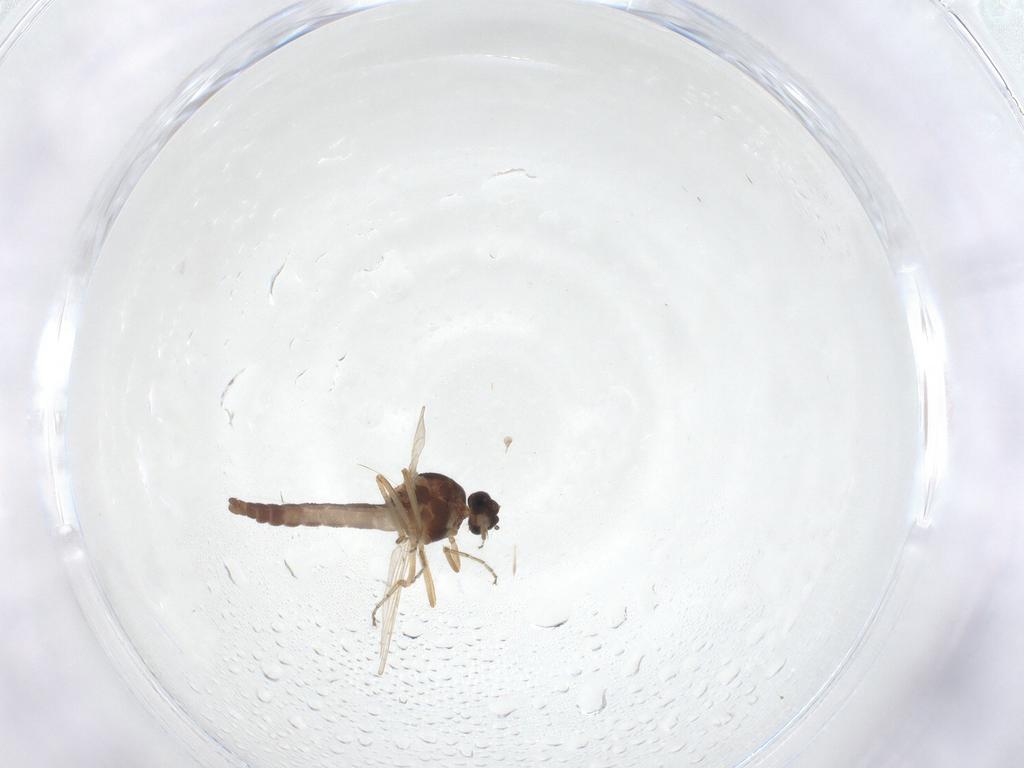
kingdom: Animalia
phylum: Arthropoda
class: Insecta
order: Diptera
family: Ceratopogonidae
